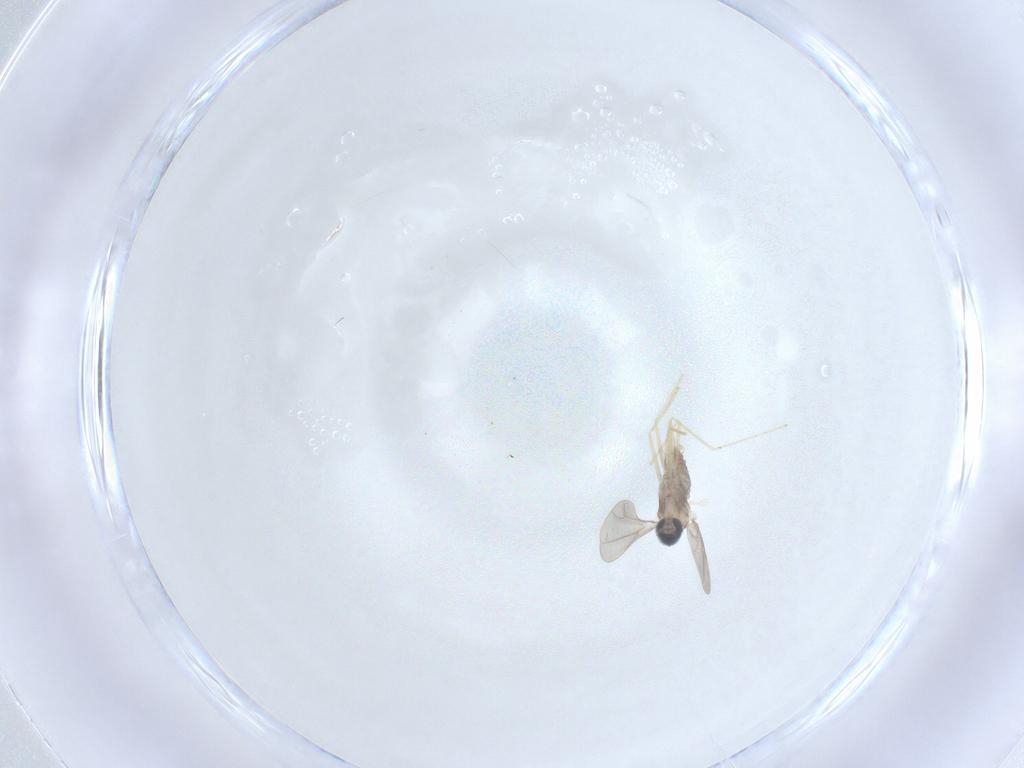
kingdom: Animalia
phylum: Arthropoda
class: Insecta
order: Diptera
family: Cecidomyiidae
